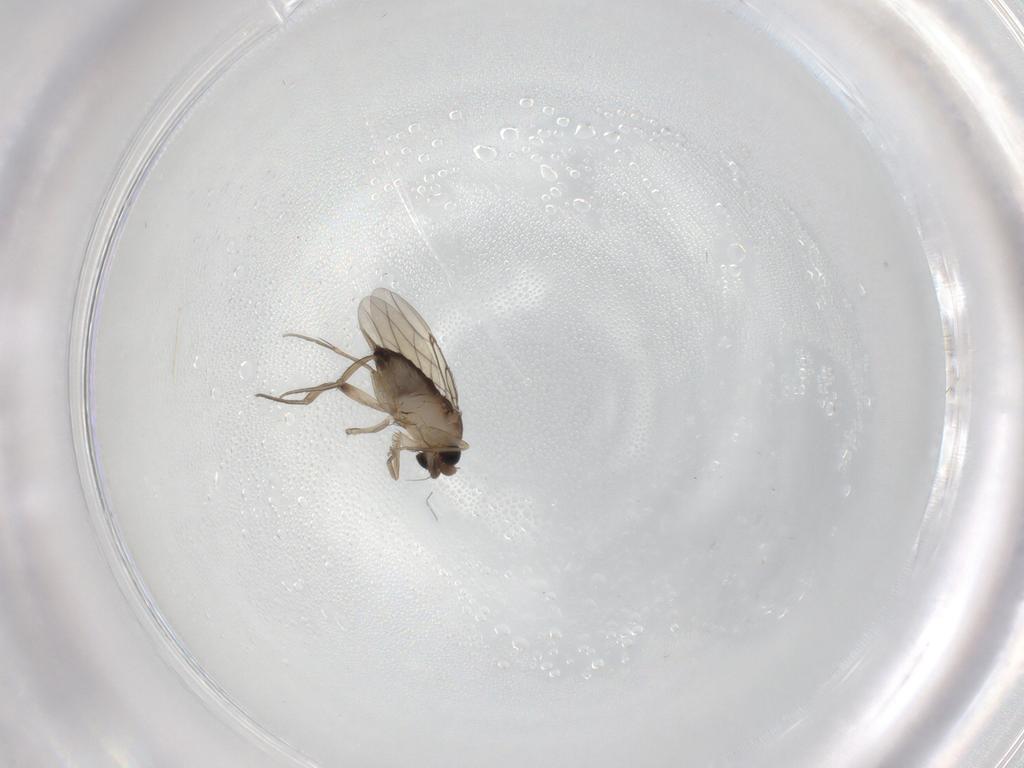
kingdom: Animalia
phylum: Arthropoda
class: Insecta
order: Diptera
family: Phoridae
